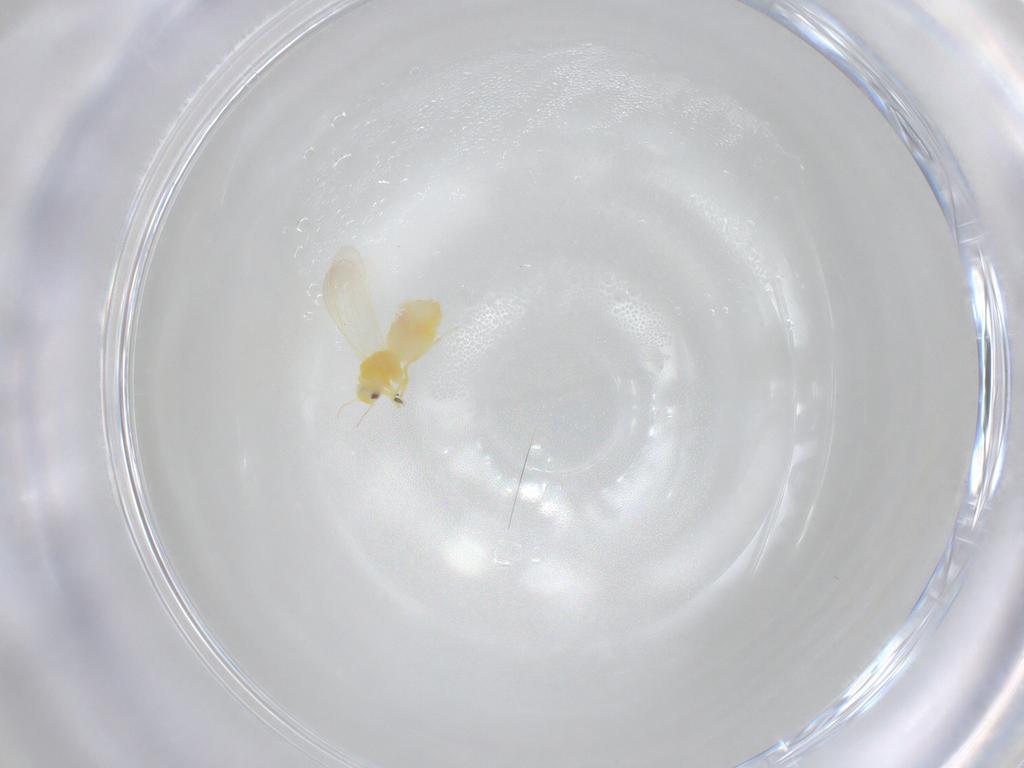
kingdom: Animalia
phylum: Arthropoda
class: Insecta
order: Hemiptera
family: Aleyrodidae
